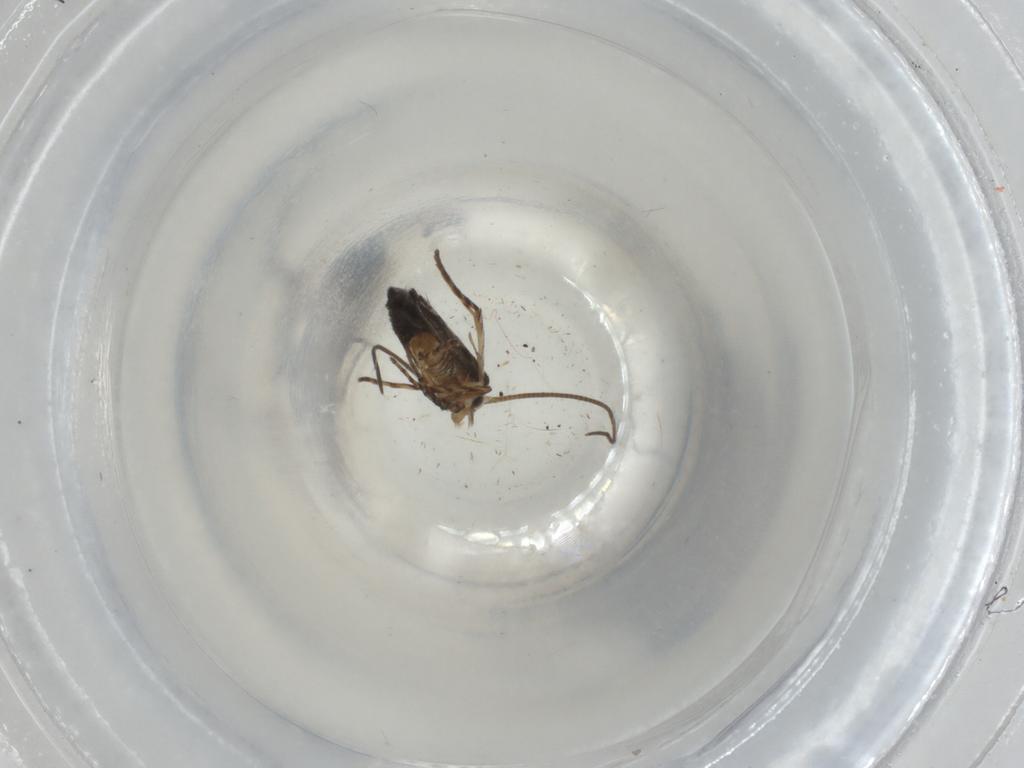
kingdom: Animalia
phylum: Arthropoda
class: Insecta
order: Lepidoptera
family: Gracillariidae
